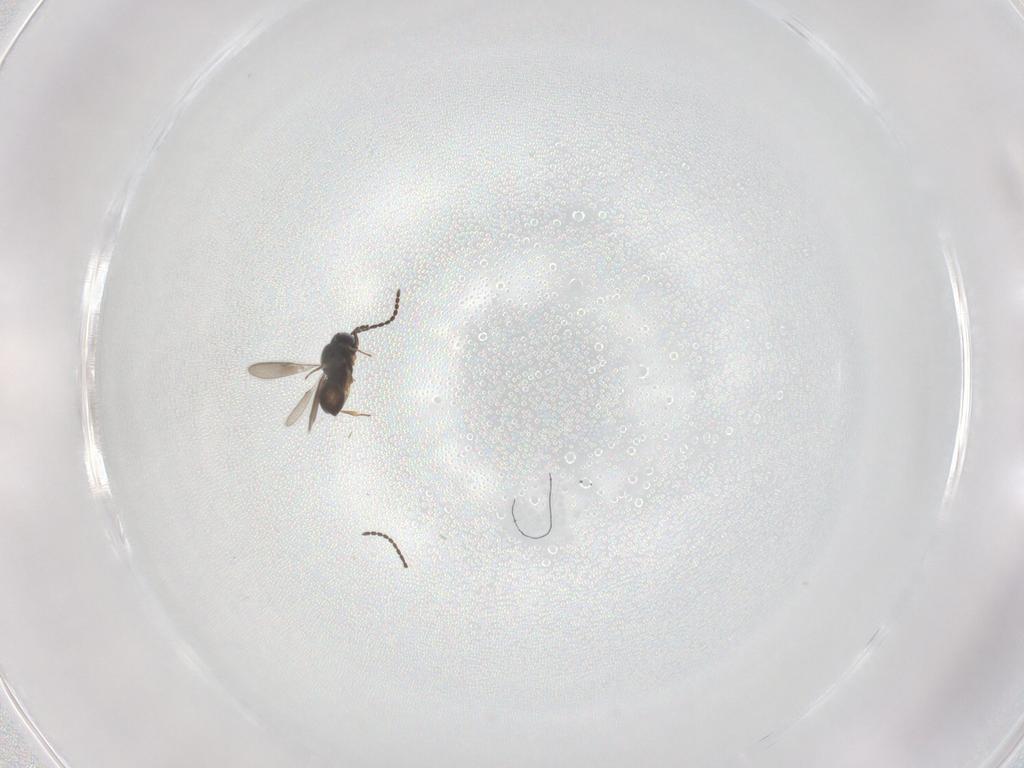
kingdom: Animalia
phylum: Arthropoda
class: Insecta
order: Hymenoptera
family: Scelionidae
